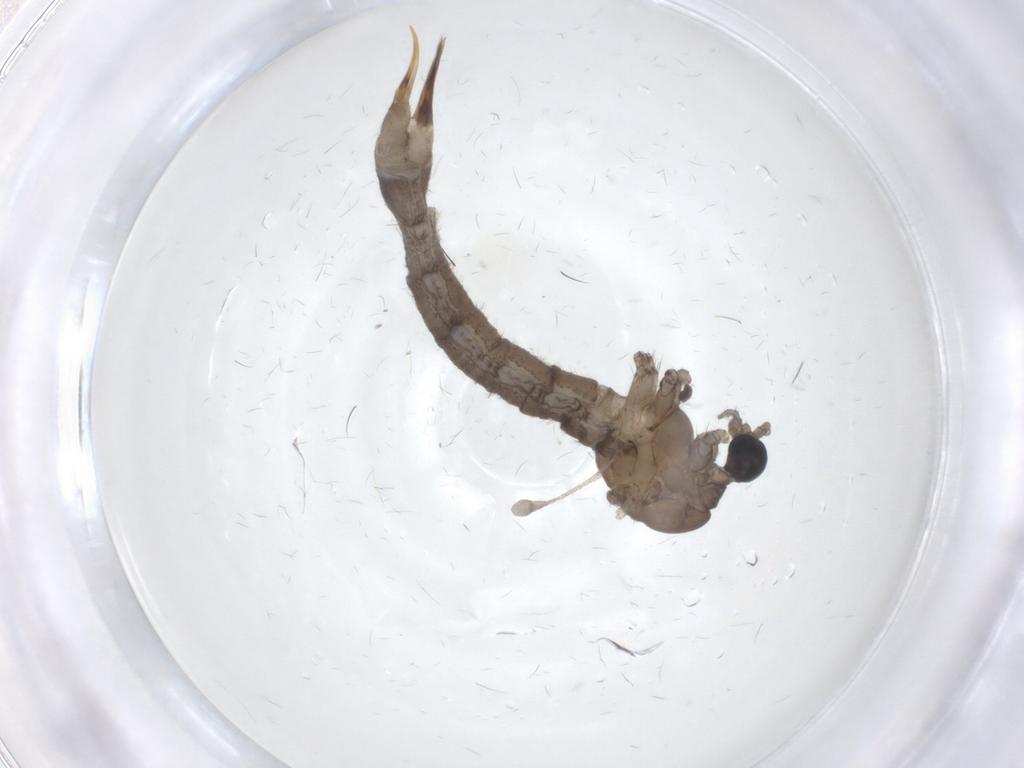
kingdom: Animalia
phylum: Arthropoda
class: Insecta
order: Diptera
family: Limoniidae
